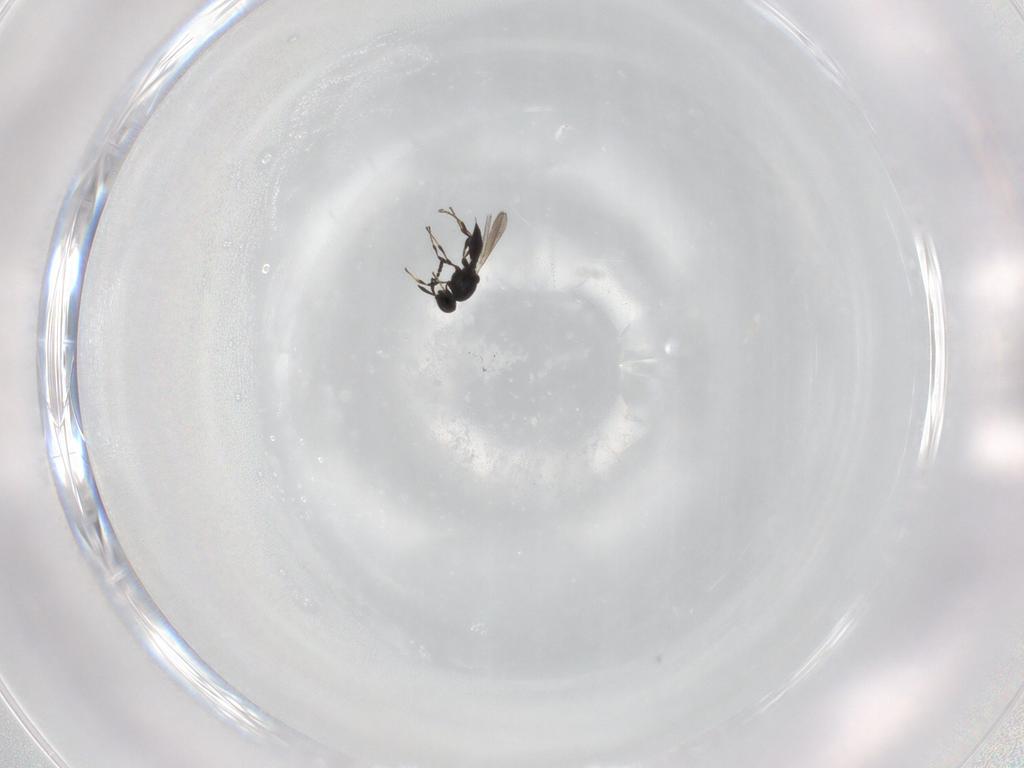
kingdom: Animalia
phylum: Arthropoda
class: Insecta
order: Hymenoptera
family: Platygastridae
